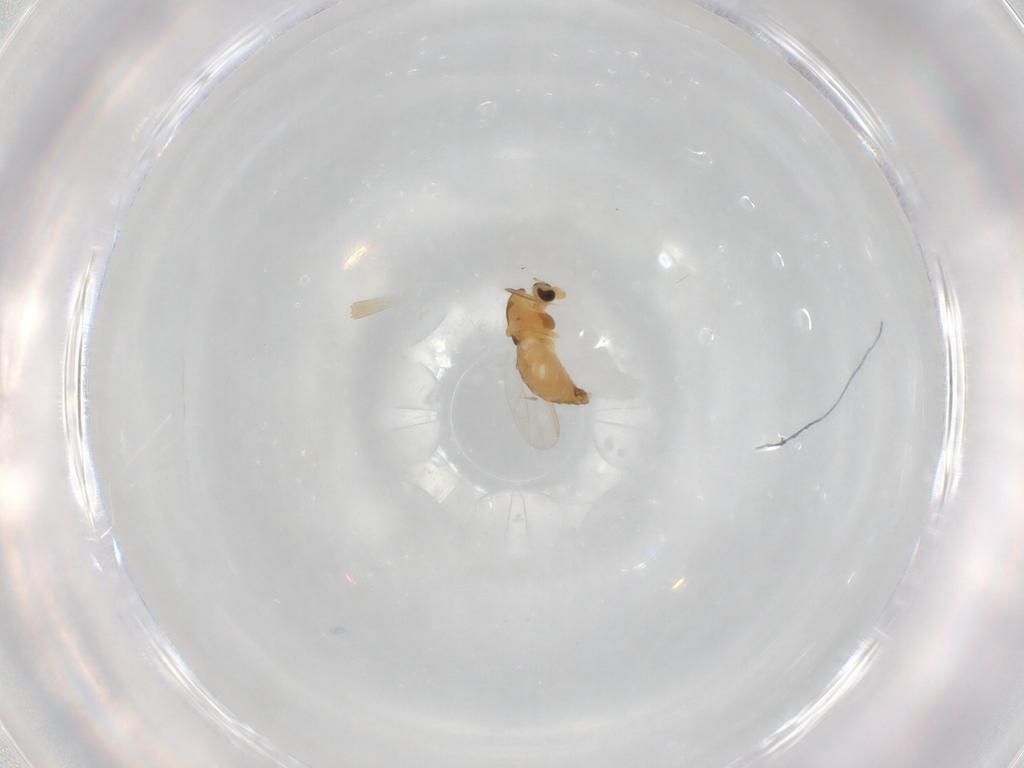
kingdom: Animalia
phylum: Arthropoda
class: Insecta
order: Diptera
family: Chironomidae
